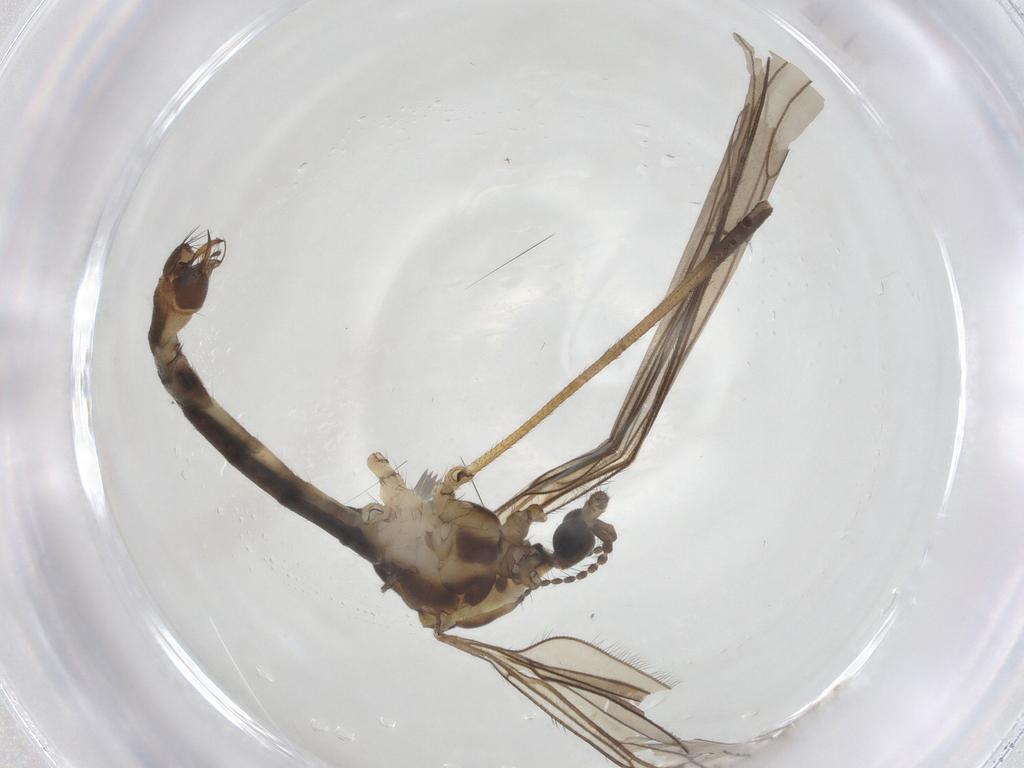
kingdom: Animalia
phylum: Arthropoda
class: Insecta
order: Diptera
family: Limoniidae
